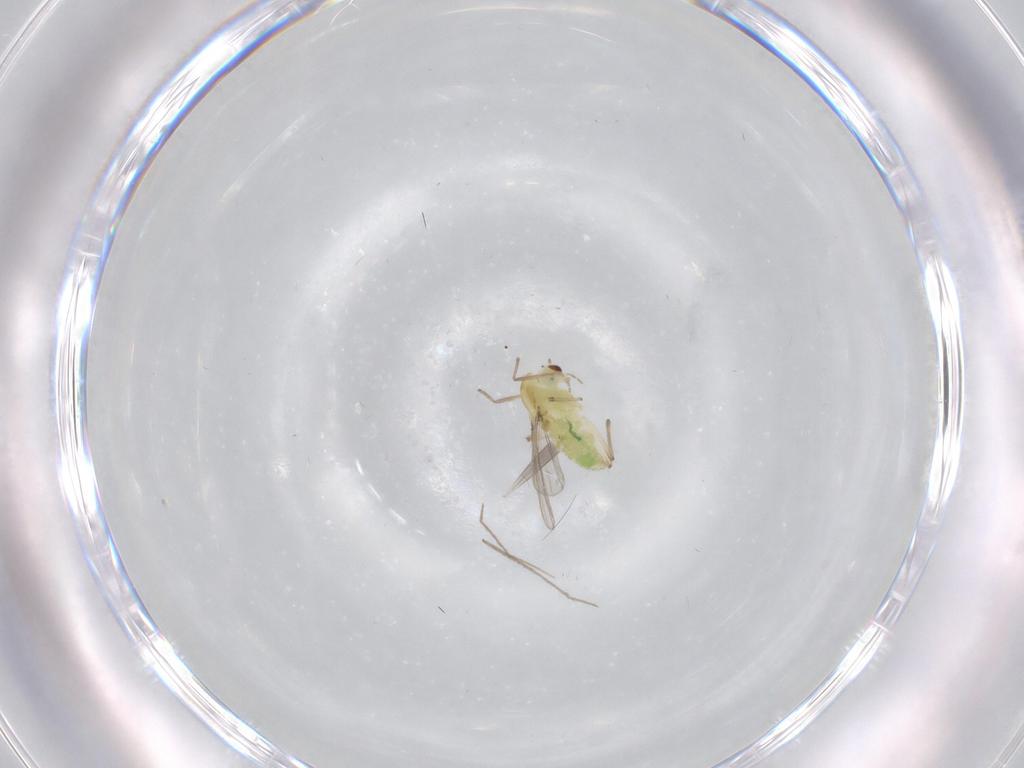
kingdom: Animalia
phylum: Arthropoda
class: Insecta
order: Diptera
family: Chironomidae
